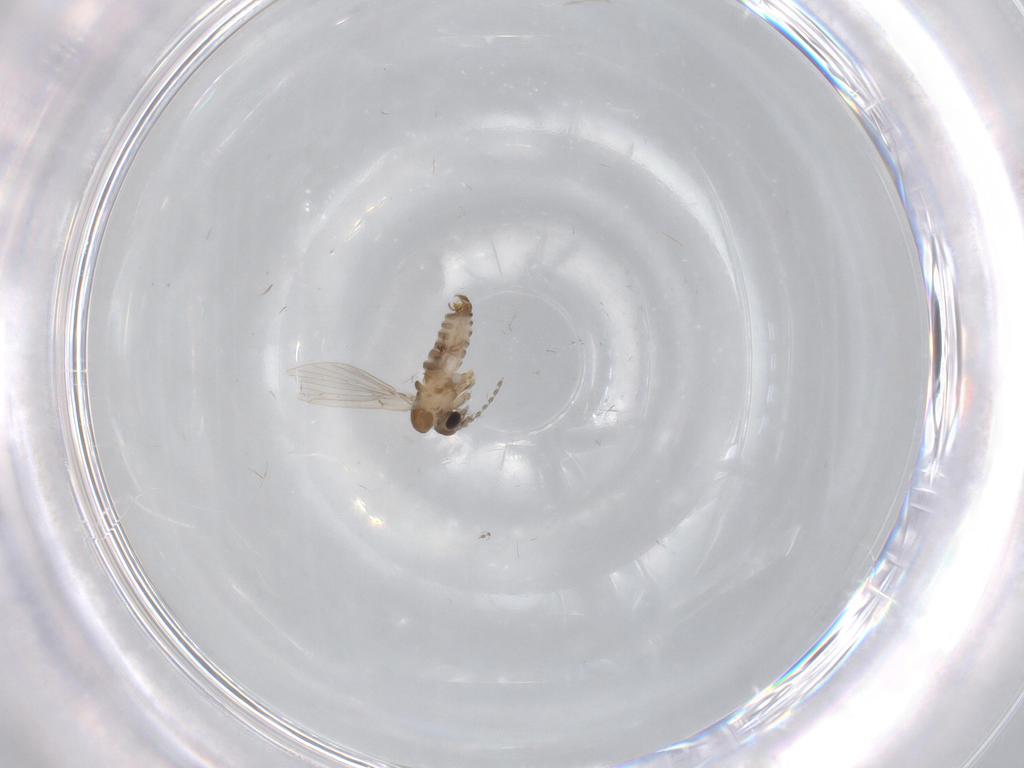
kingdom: Animalia
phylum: Arthropoda
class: Insecta
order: Diptera
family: Psychodidae
